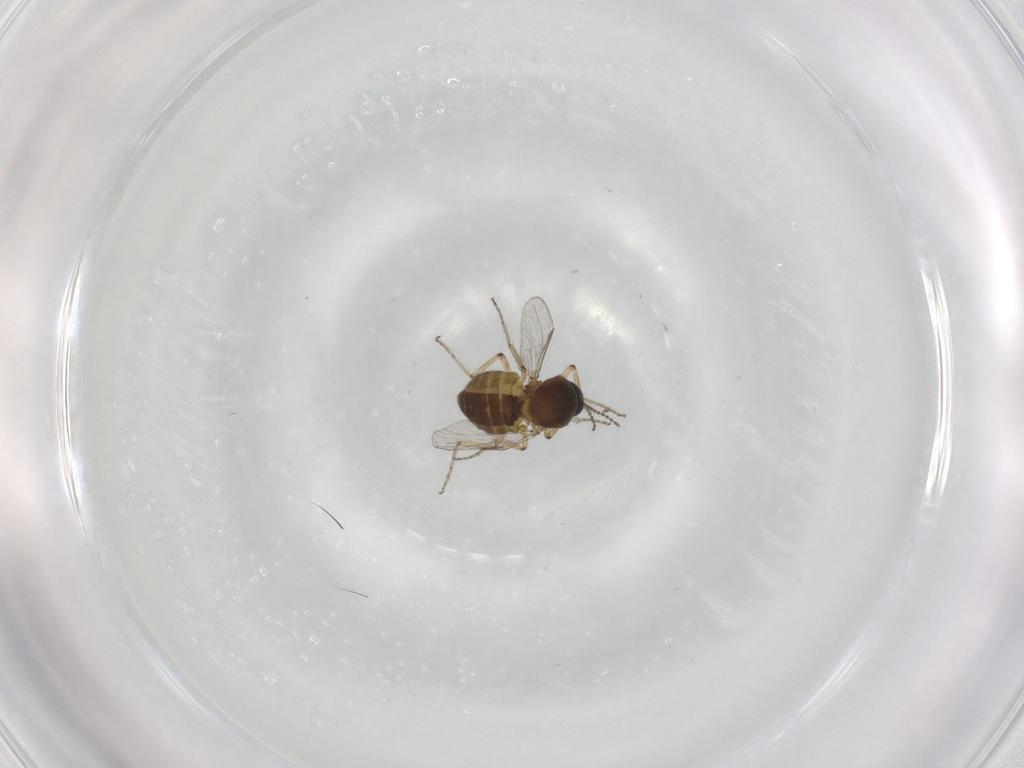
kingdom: Animalia
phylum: Arthropoda
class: Insecta
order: Diptera
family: Ceratopogonidae
